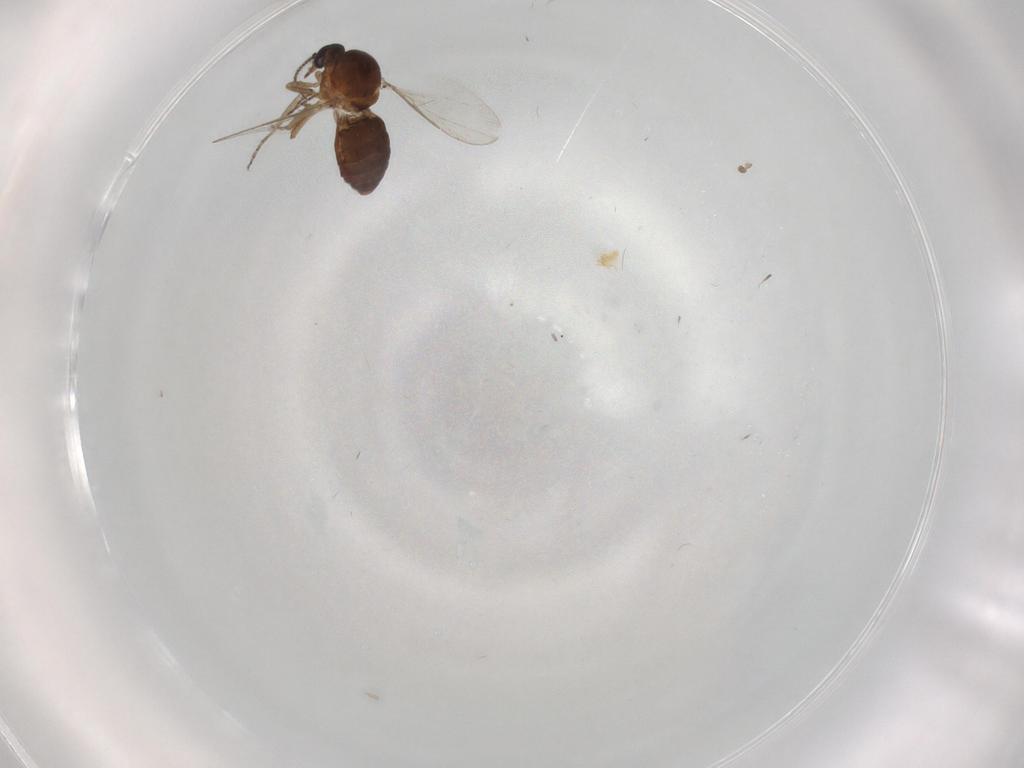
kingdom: Animalia
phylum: Arthropoda
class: Insecta
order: Diptera
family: Ceratopogonidae
